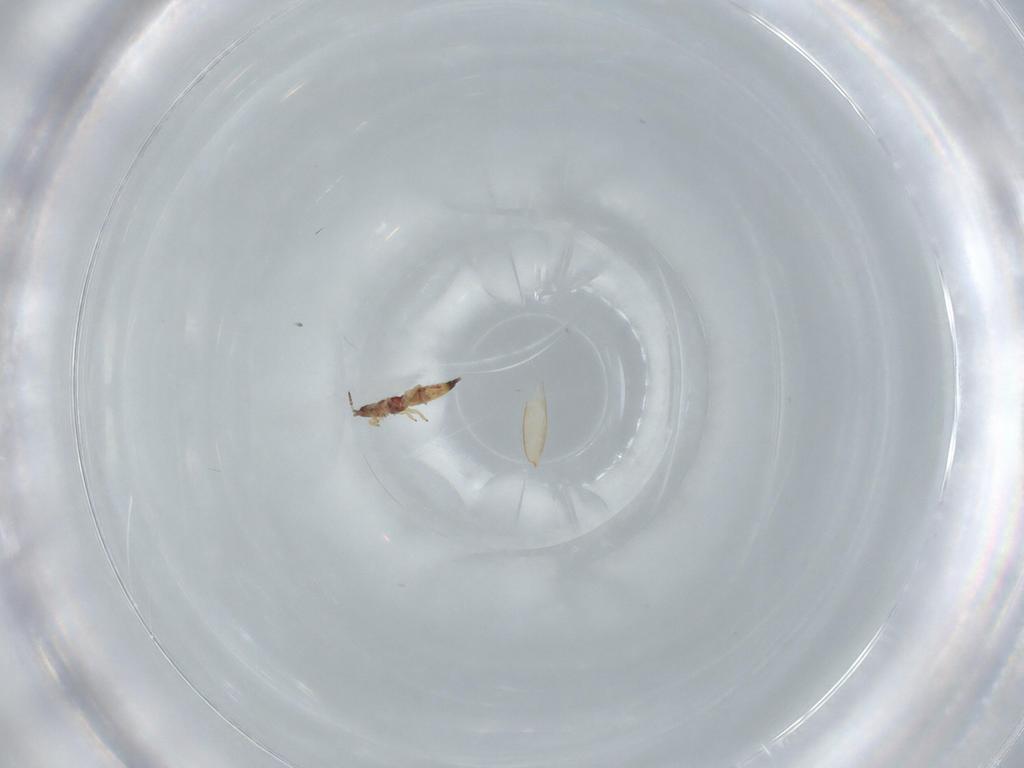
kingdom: Animalia
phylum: Arthropoda
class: Insecta
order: Thysanoptera
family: Phlaeothripidae
